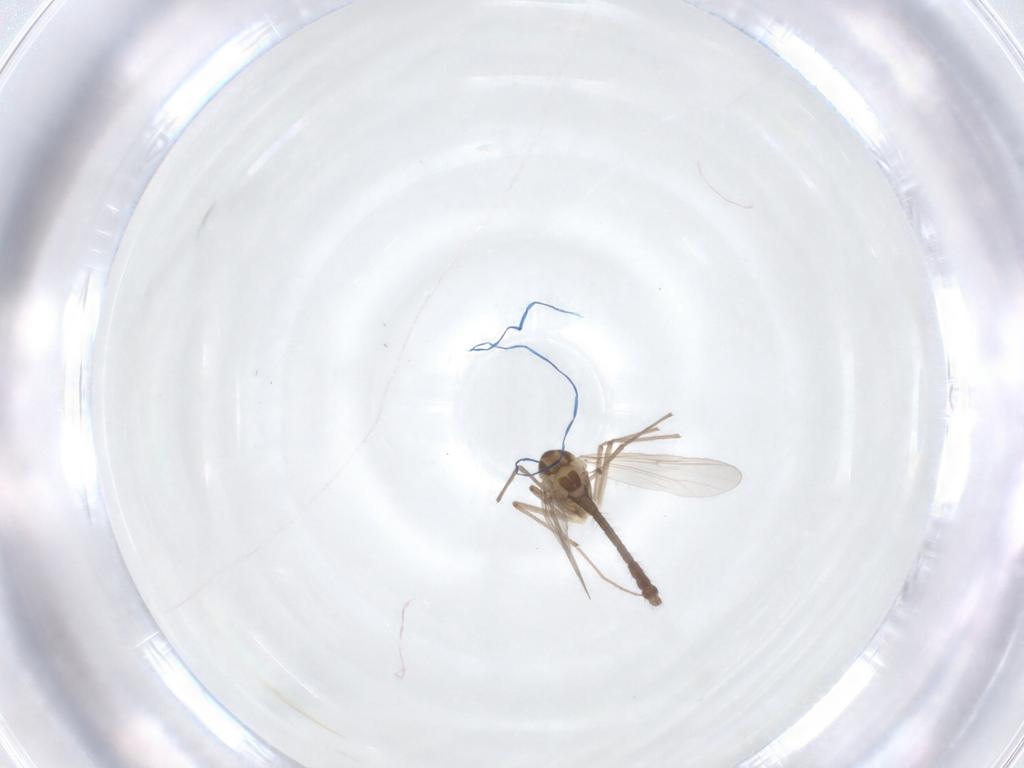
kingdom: Animalia
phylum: Arthropoda
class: Insecta
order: Diptera
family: Chironomidae
